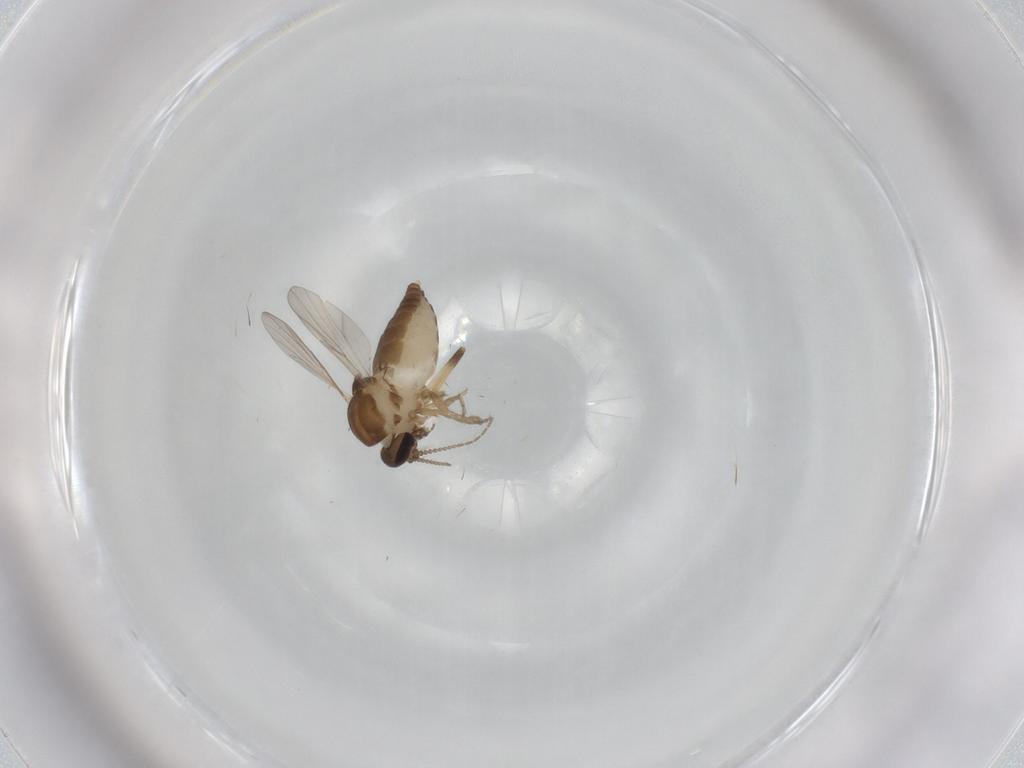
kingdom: Animalia
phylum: Arthropoda
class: Insecta
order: Diptera
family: Ceratopogonidae
